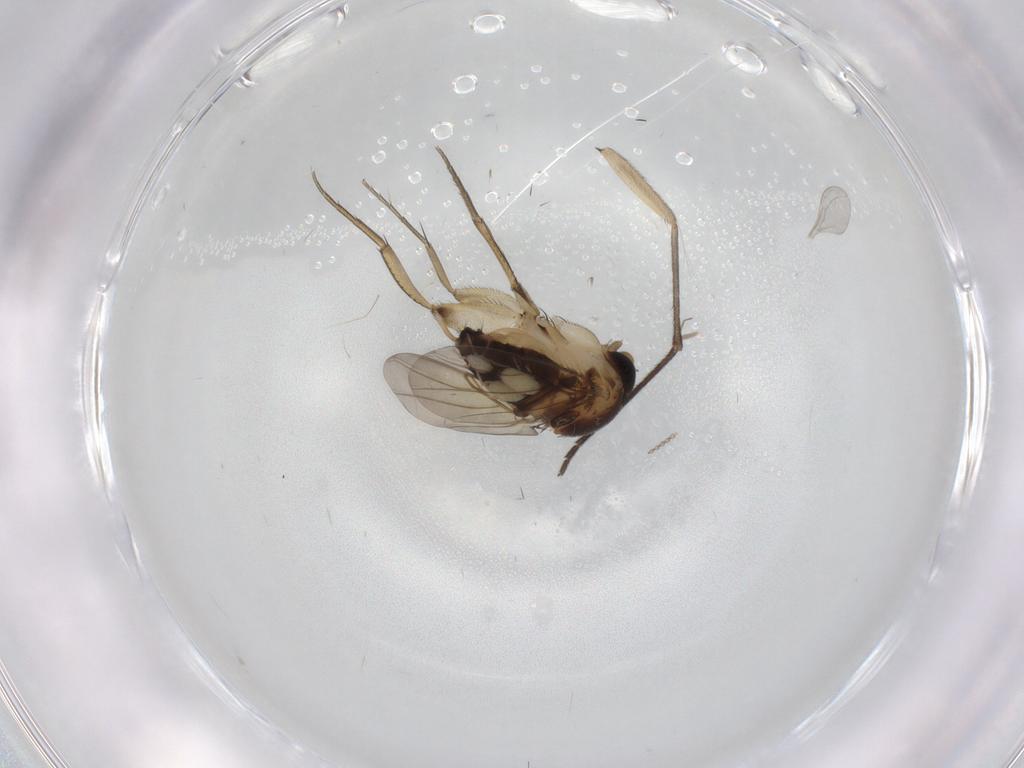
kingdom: Animalia
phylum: Arthropoda
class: Insecta
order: Diptera
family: Phoridae
